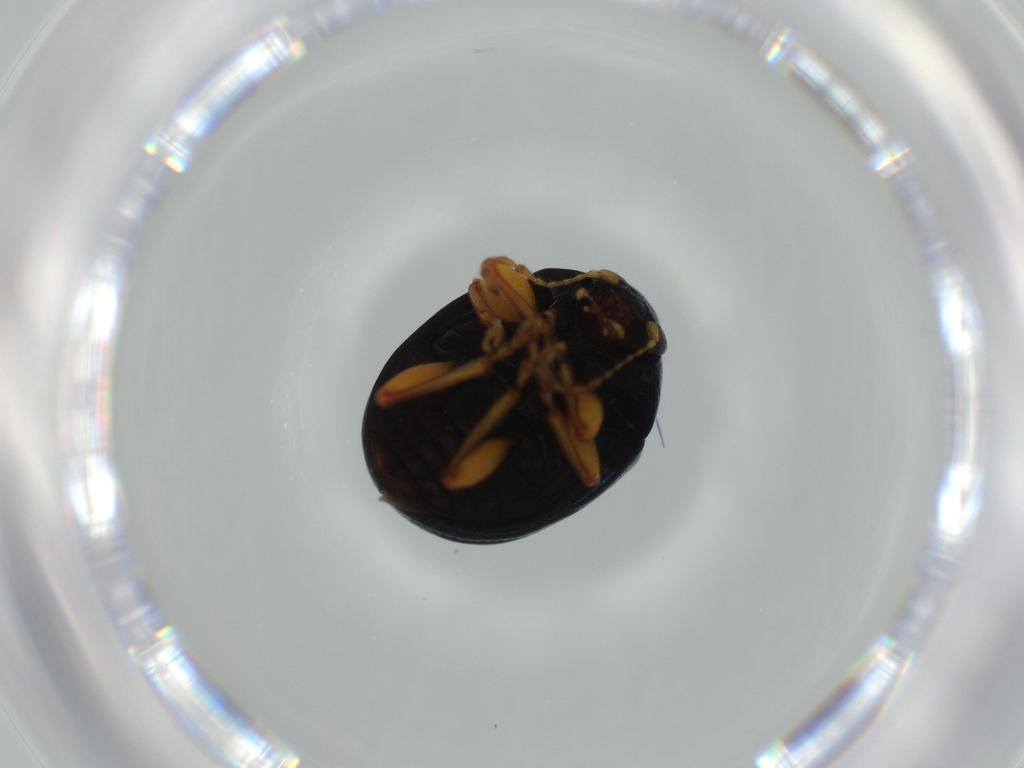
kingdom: Animalia
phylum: Arthropoda
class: Insecta
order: Coleoptera
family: Chrysomelidae
